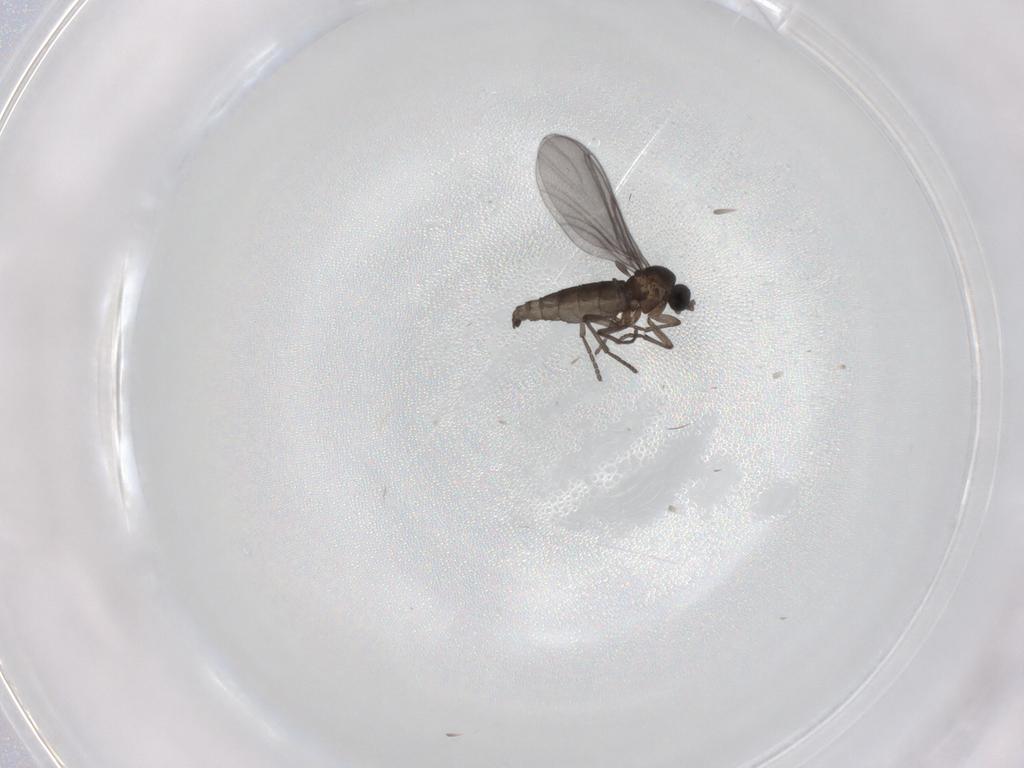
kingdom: Animalia
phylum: Arthropoda
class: Insecta
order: Diptera
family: Sciaridae
